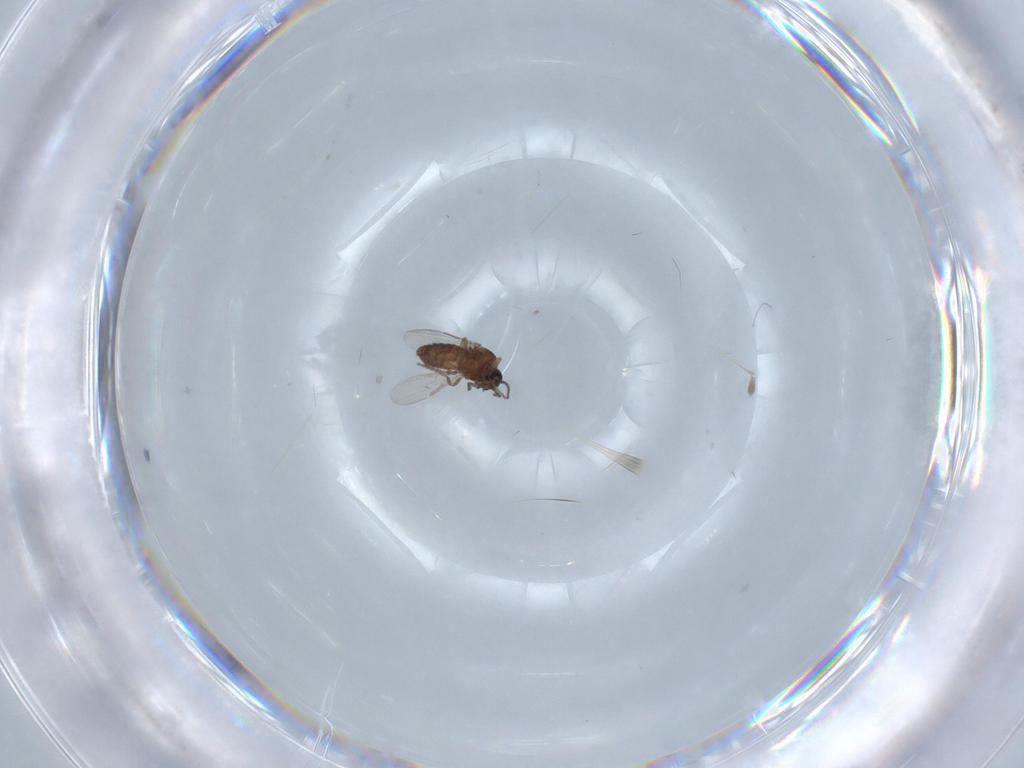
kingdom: Animalia
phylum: Arthropoda
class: Insecta
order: Diptera
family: Ceratopogonidae
